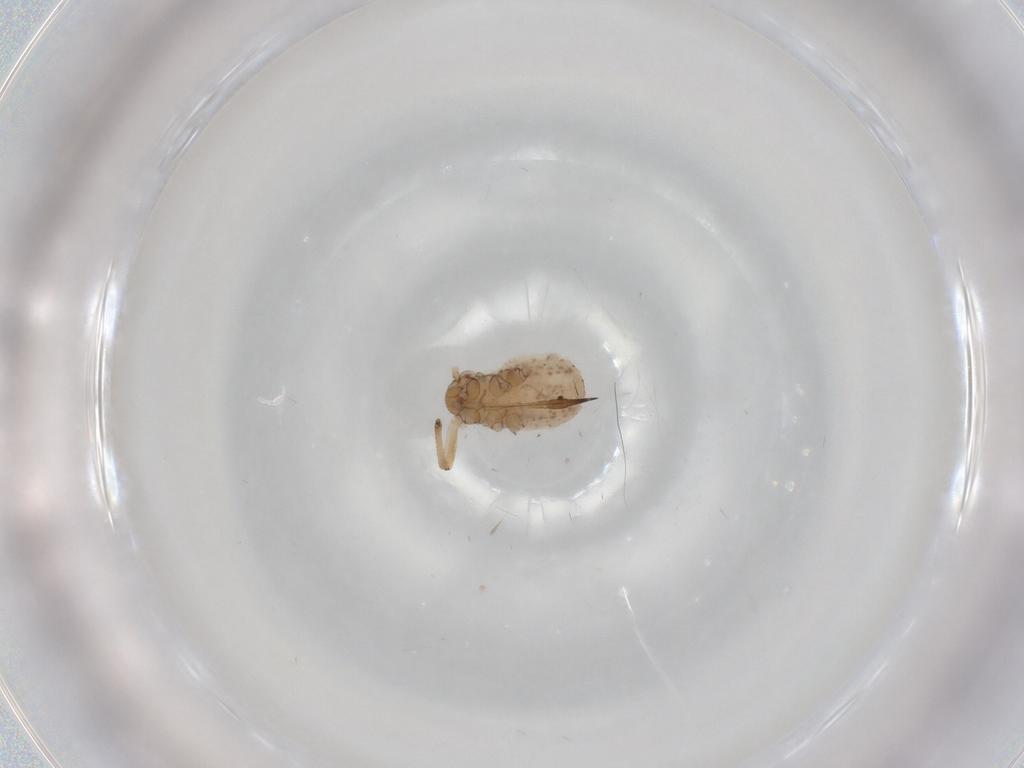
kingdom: Animalia
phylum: Arthropoda
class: Insecta
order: Hemiptera
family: Aphididae
